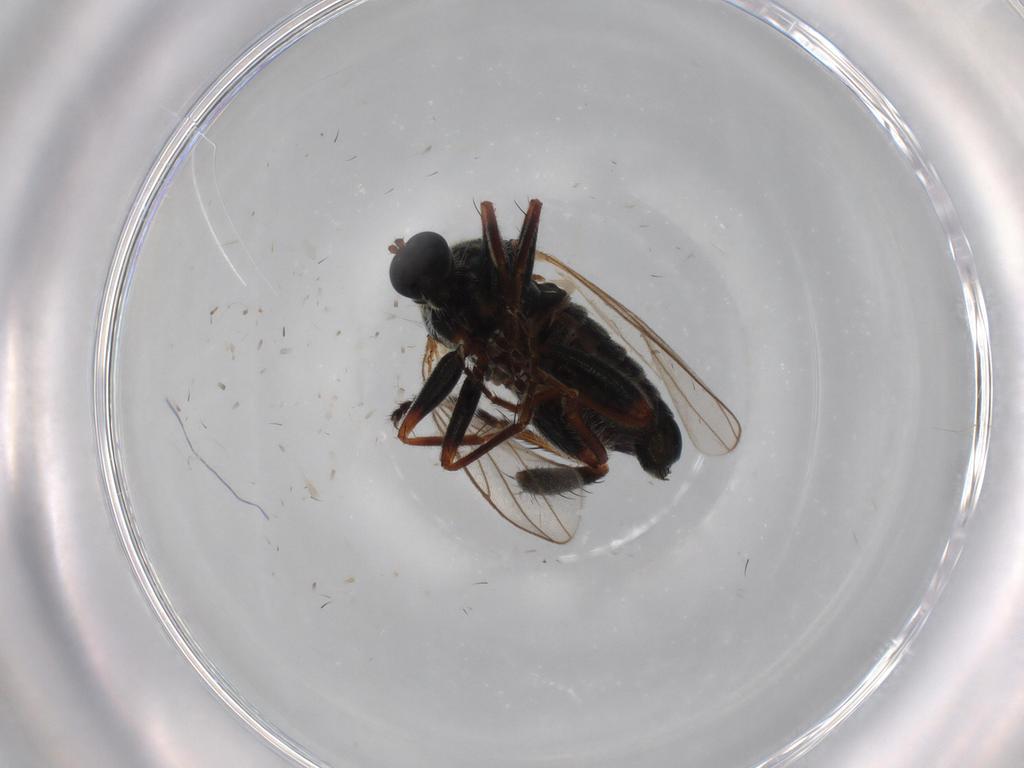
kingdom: Animalia
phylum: Arthropoda
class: Insecta
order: Diptera
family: Hybotidae
